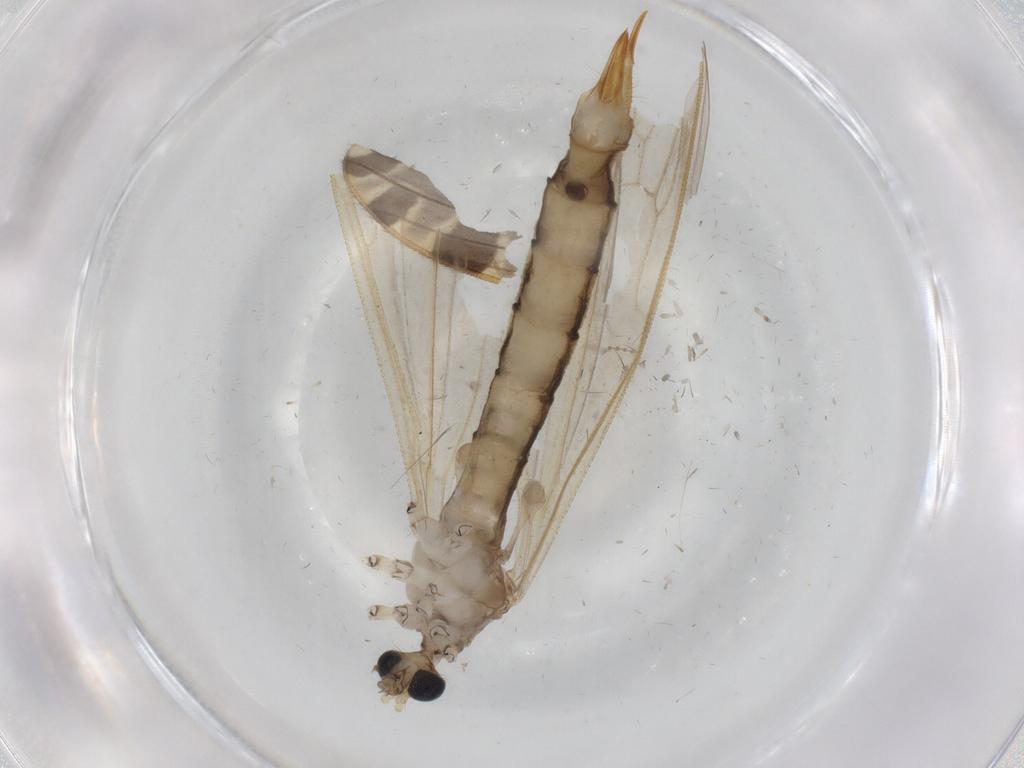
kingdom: Animalia
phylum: Arthropoda
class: Insecta
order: Diptera
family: Limoniidae
